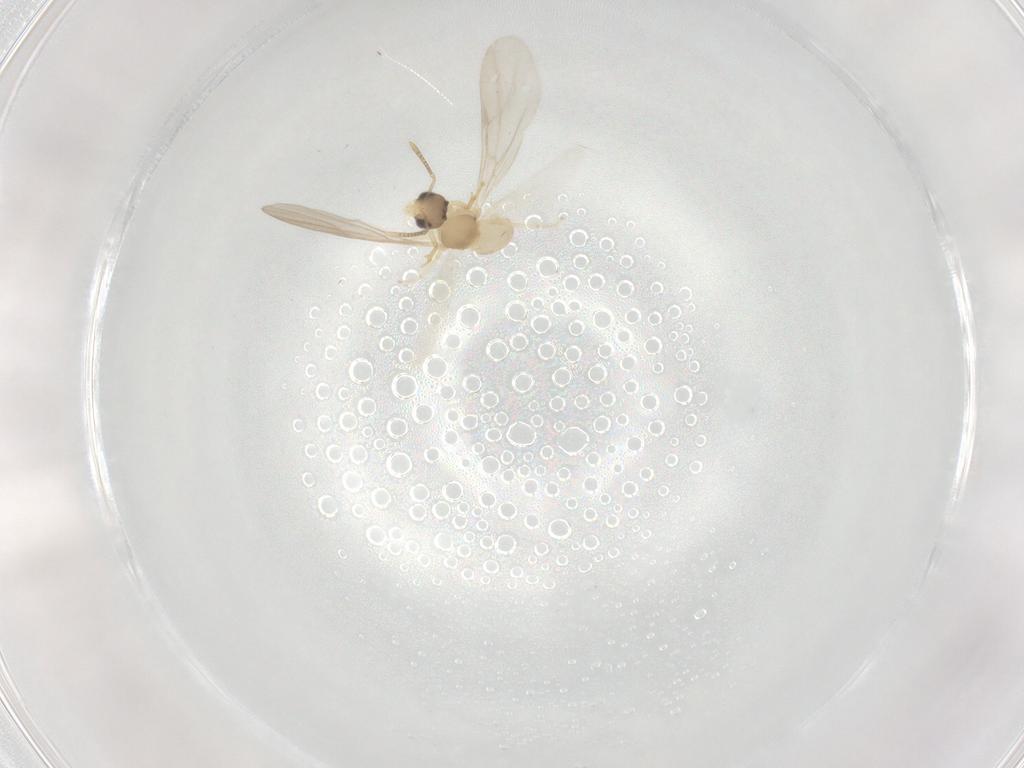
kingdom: Animalia
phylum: Arthropoda
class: Insecta
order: Hymenoptera
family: Formicidae
